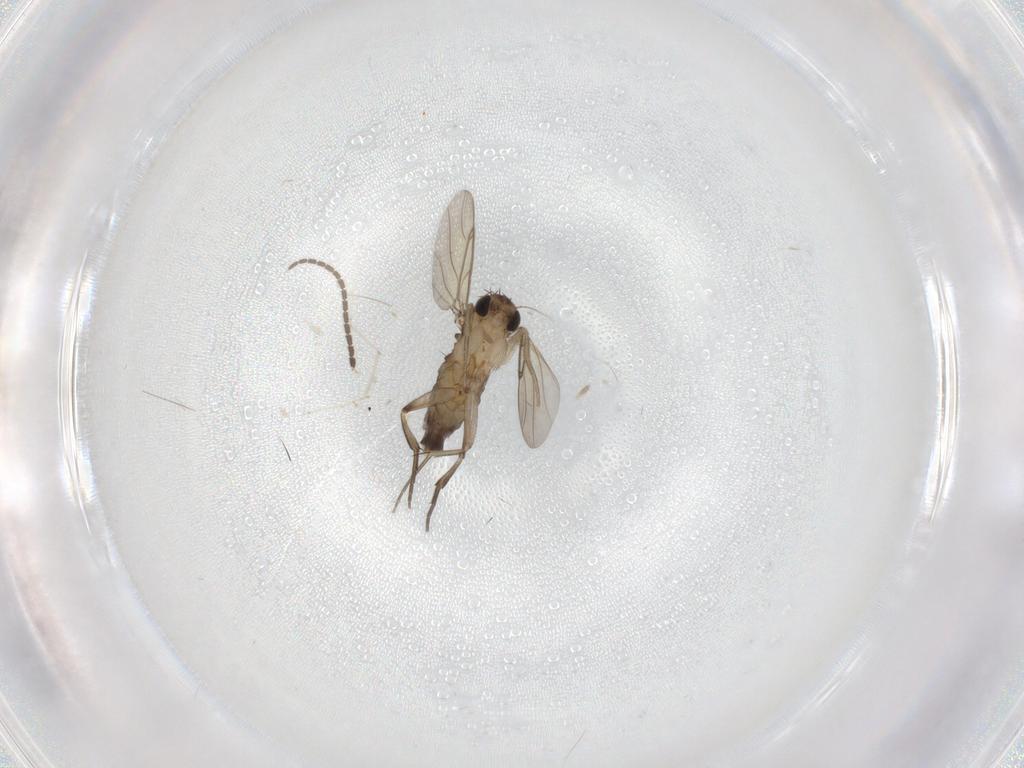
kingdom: Animalia
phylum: Arthropoda
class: Insecta
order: Diptera
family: Phoridae
